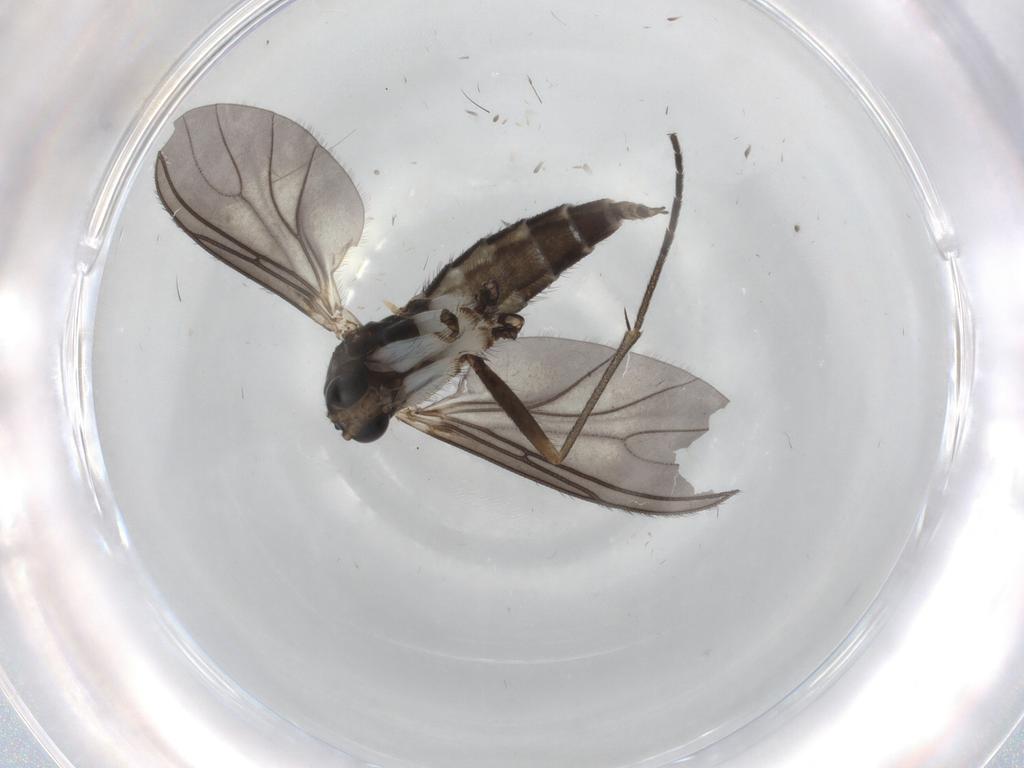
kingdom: Animalia
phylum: Arthropoda
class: Insecta
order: Diptera
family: Sciaridae
